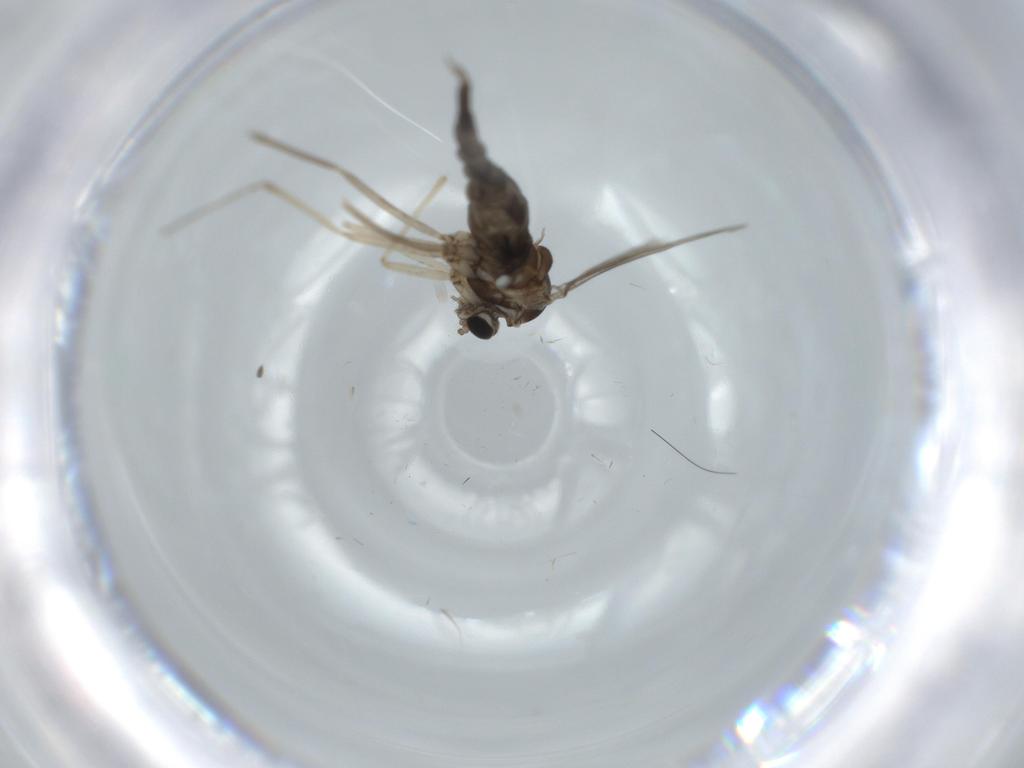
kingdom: Animalia
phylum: Arthropoda
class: Insecta
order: Diptera
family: Cecidomyiidae
